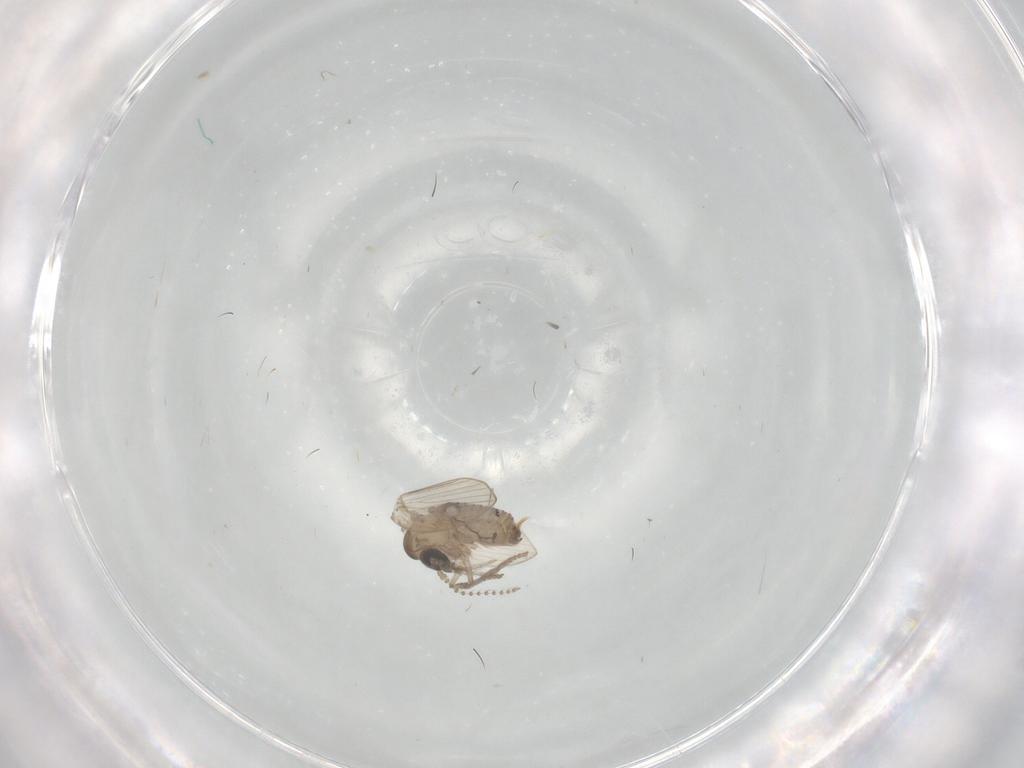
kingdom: Animalia
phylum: Arthropoda
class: Insecta
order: Diptera
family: Psychodidae
